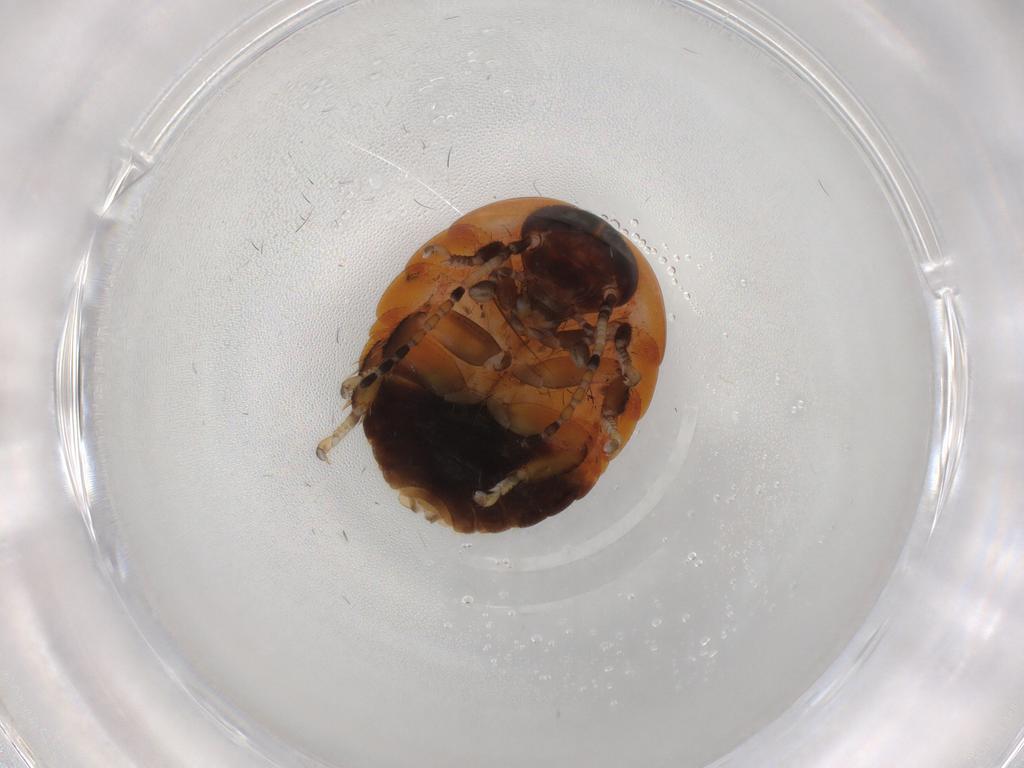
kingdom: Animalia
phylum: Arthropoda
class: Insecta
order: Blattodea
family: Blaberidae
